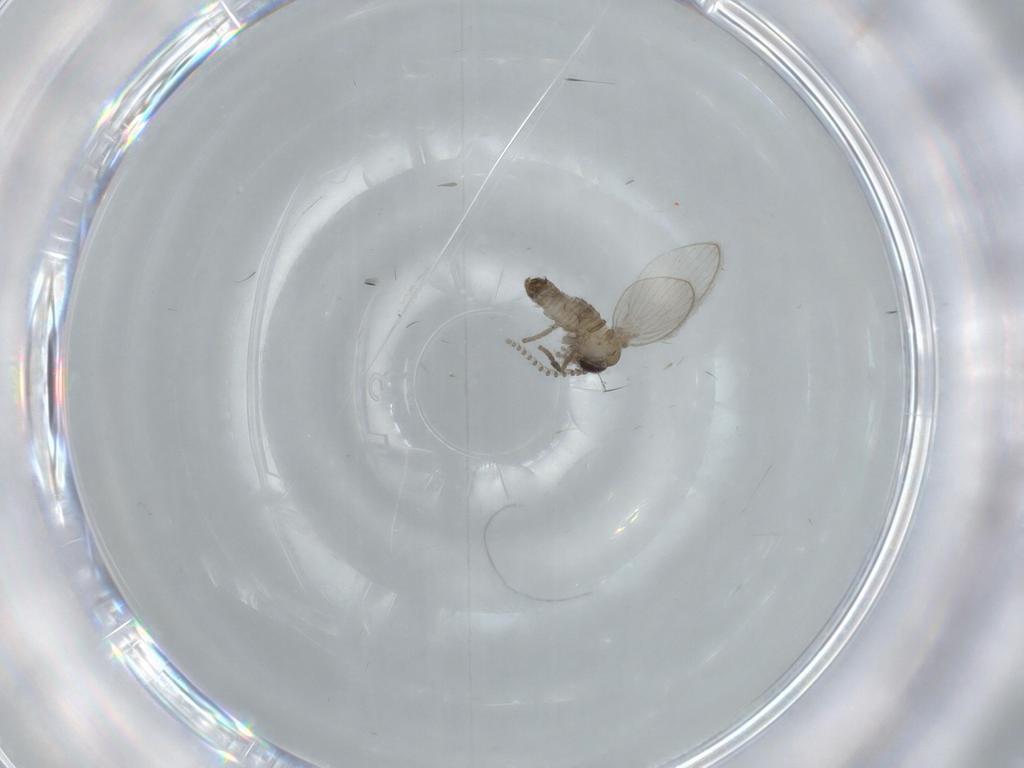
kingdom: Animalia
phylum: Arthropoda
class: Insecta
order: Diptera
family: Psychodidae
